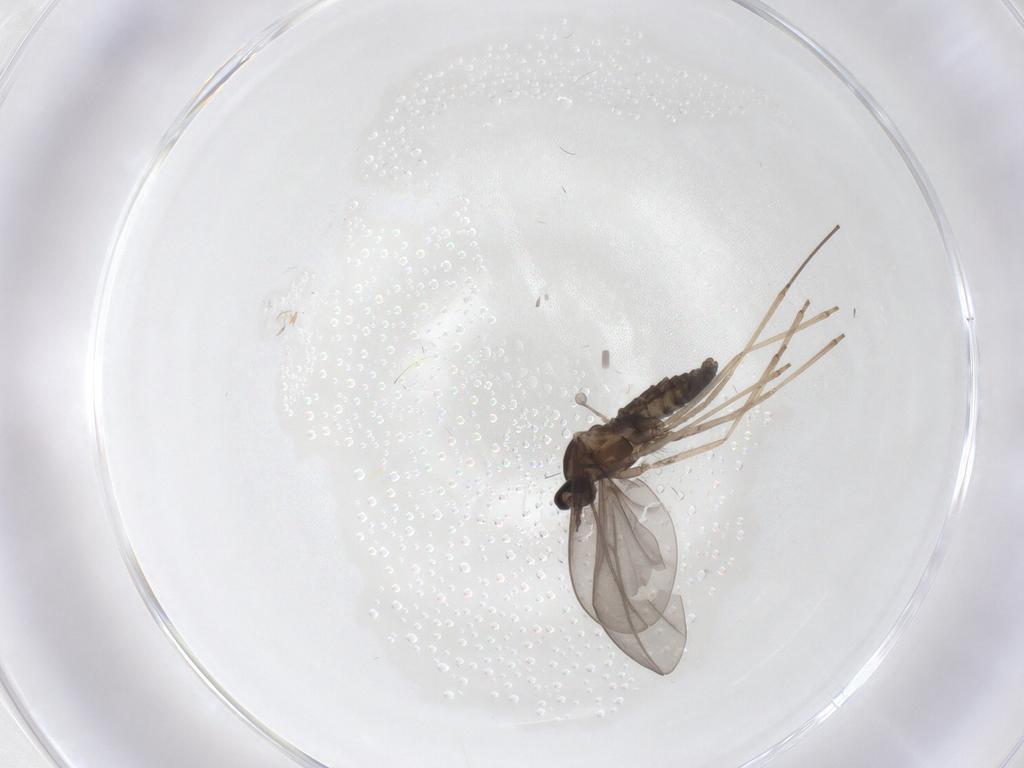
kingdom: Animalia
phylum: Arthropoda
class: Insecta
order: Diptera
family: Cecidomyiidae
